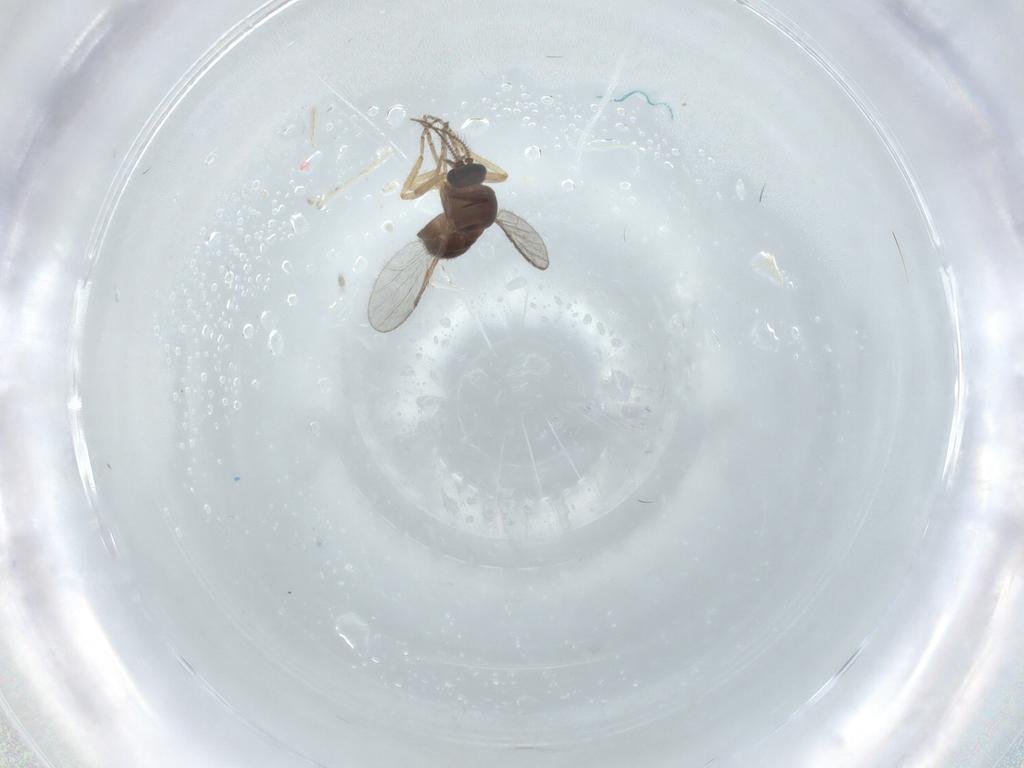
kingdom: Animalia
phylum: Arthropoda
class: Insecta
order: Diptera
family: Ceratopogonidae
